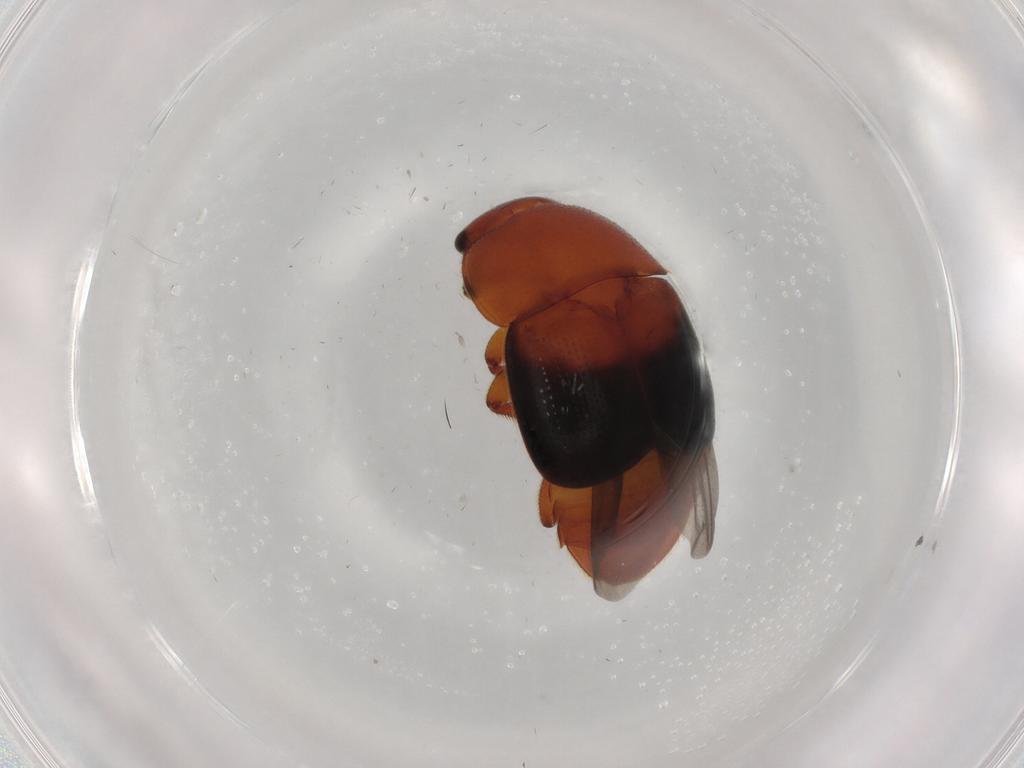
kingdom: Animalia
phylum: Arthropoda
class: Insecta
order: Coleoptera
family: Nitidulidae
